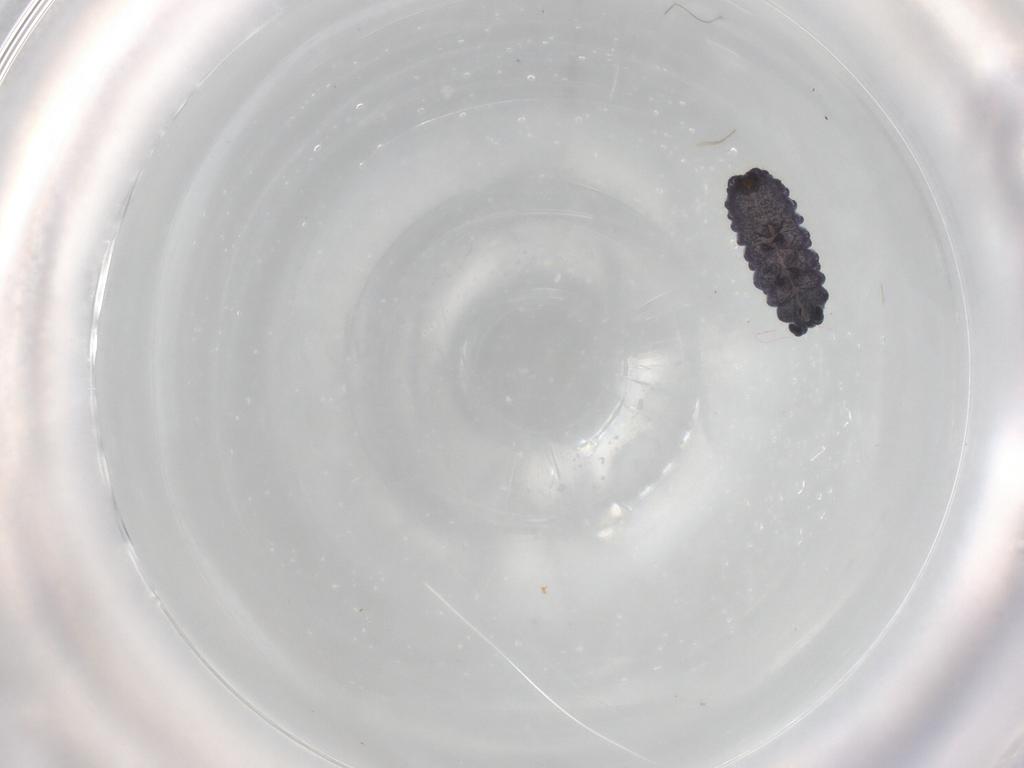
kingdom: Animalia
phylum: Arthropoda
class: Collembola
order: Poduromorpha
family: Neanuridae
